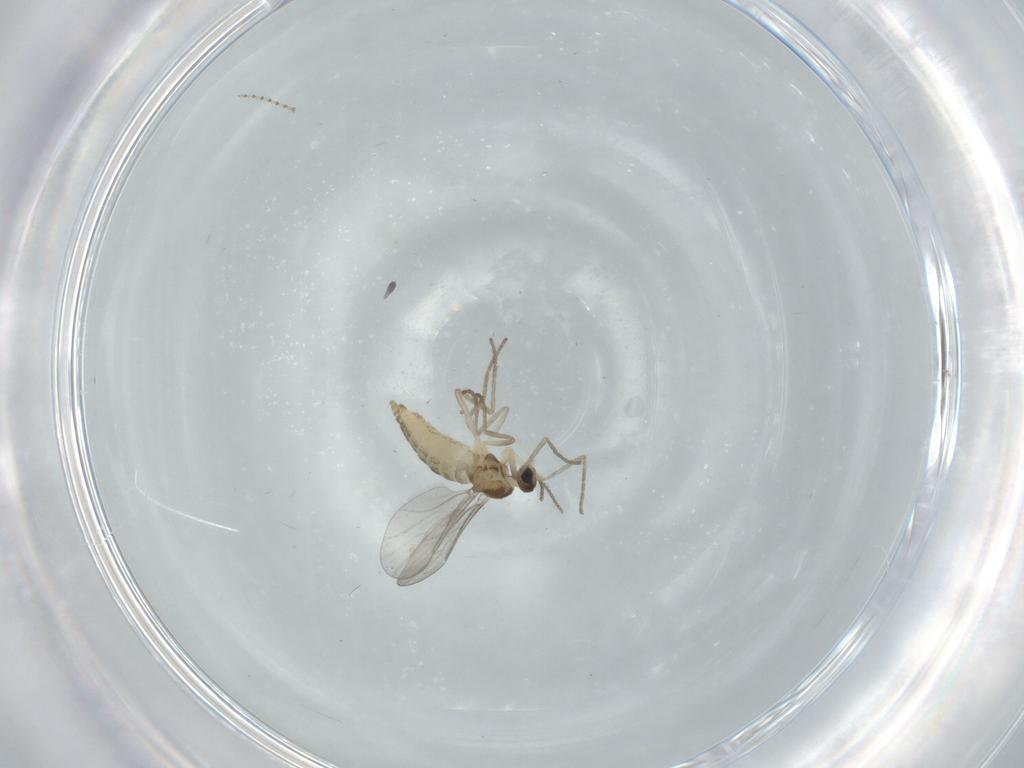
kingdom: Animalia
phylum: Arthropoda
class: Insecta
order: Diptera
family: Cecidomyiidae
